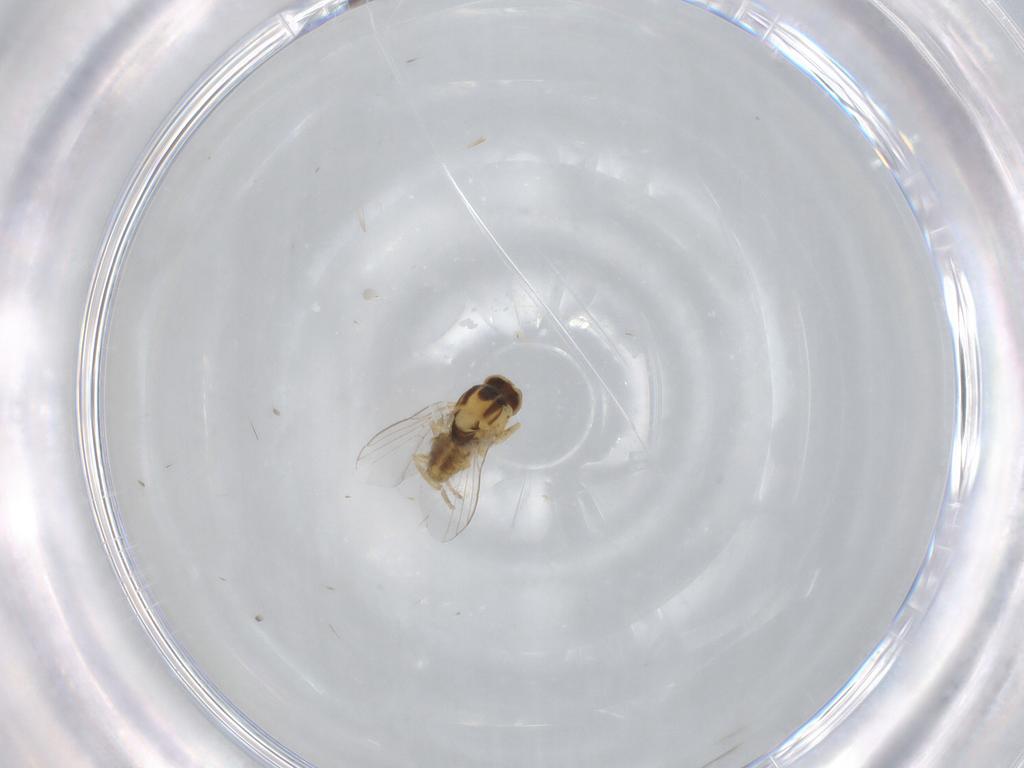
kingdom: Animalia
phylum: Arthropoda
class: Insecta
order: Diptera
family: Agromyzidae
